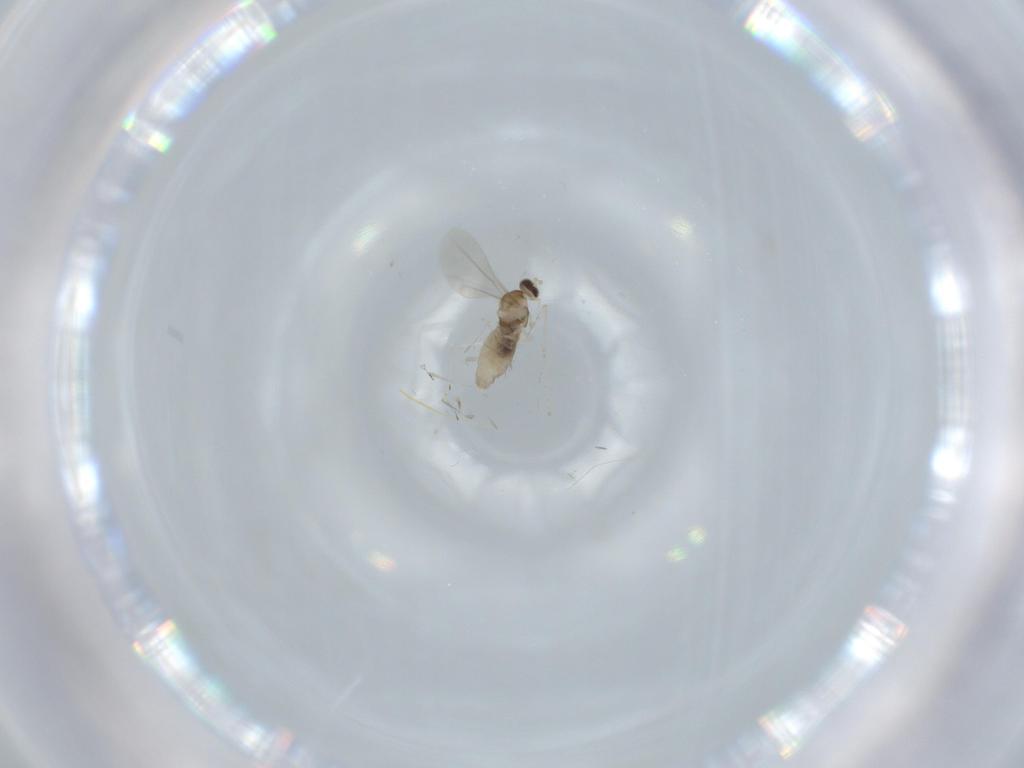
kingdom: Animalia
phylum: Arthropoda
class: Insecta
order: Diptera
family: Cecidomyiidae
